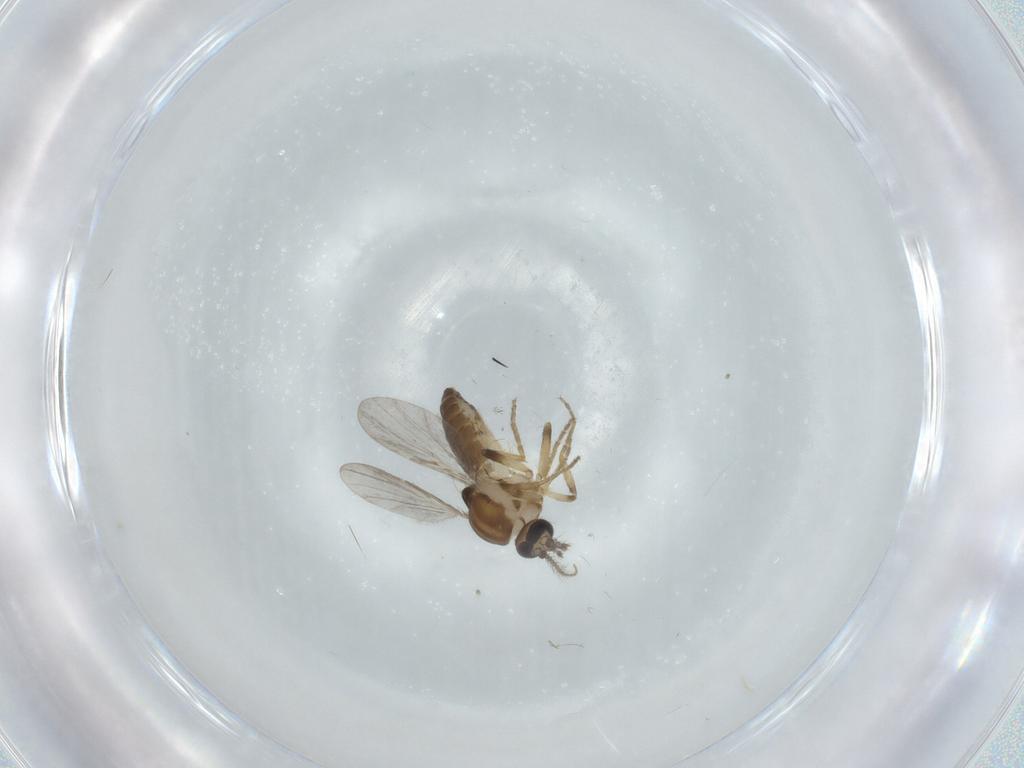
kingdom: Animalia
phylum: Arthropoda
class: Insecta
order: Diptera
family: Ceratopogonidae
